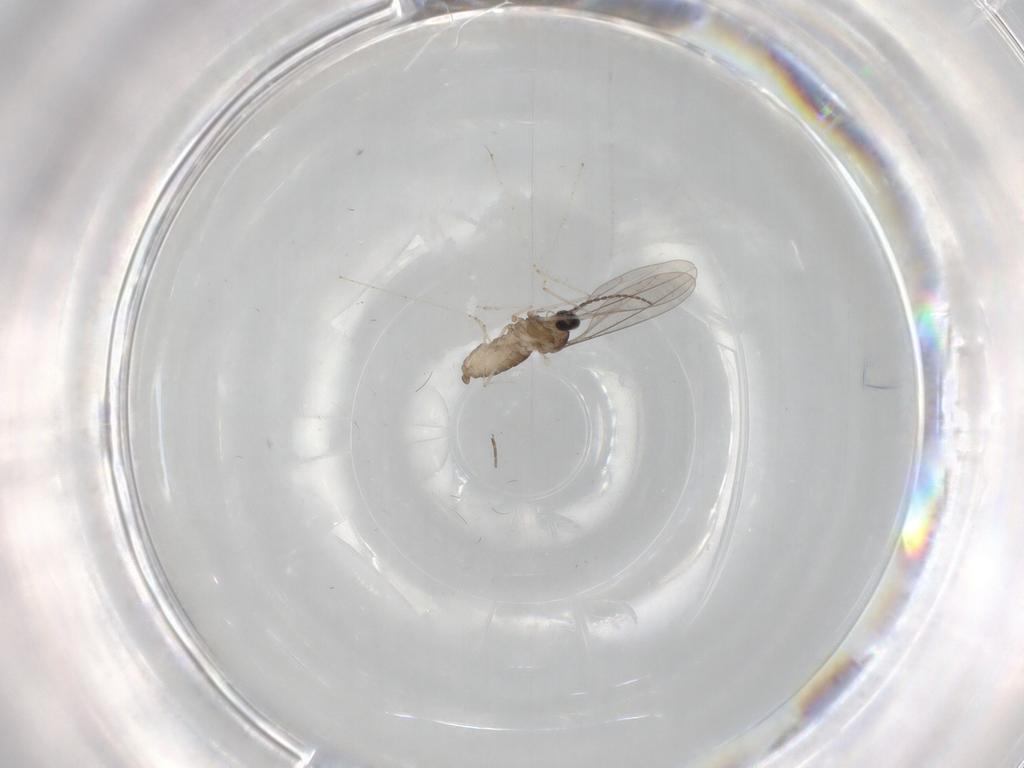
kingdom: Animalia
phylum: Arthropoda
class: Insecta
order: Diptera
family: Cecidomyiidae
